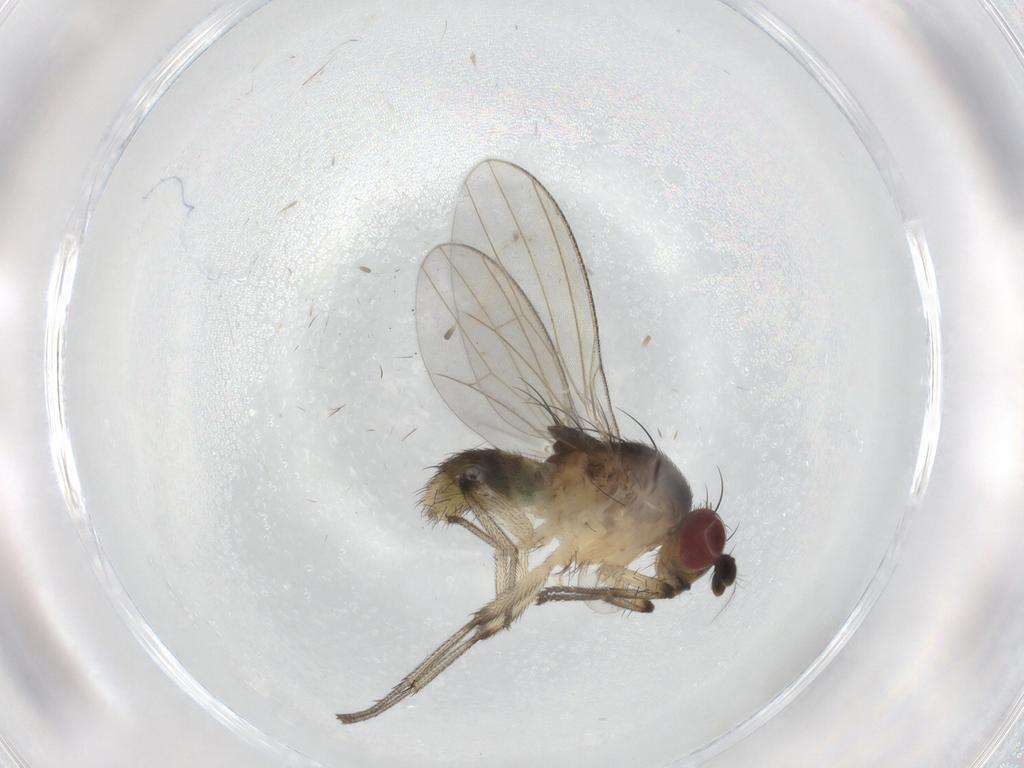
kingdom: Animalia
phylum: Arthropoda
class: Insecta
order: Diptera
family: Lauxaniidae
